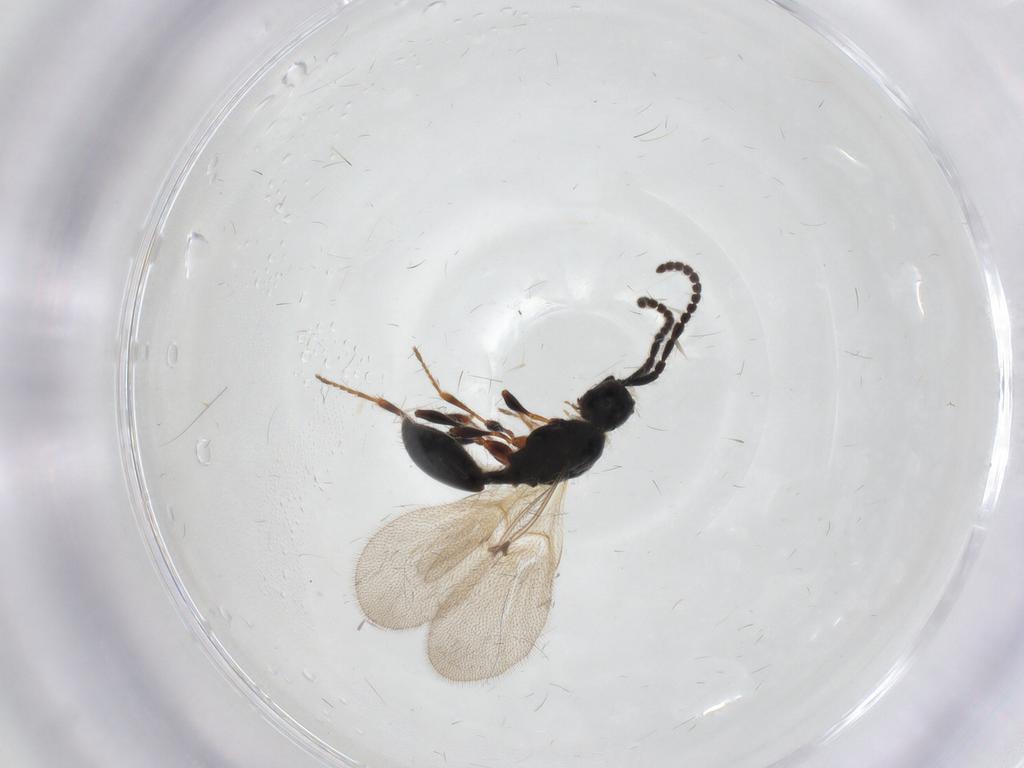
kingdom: Animalia
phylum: Arthropoda
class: Insecta
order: Hymenoptera
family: Diapriidae
